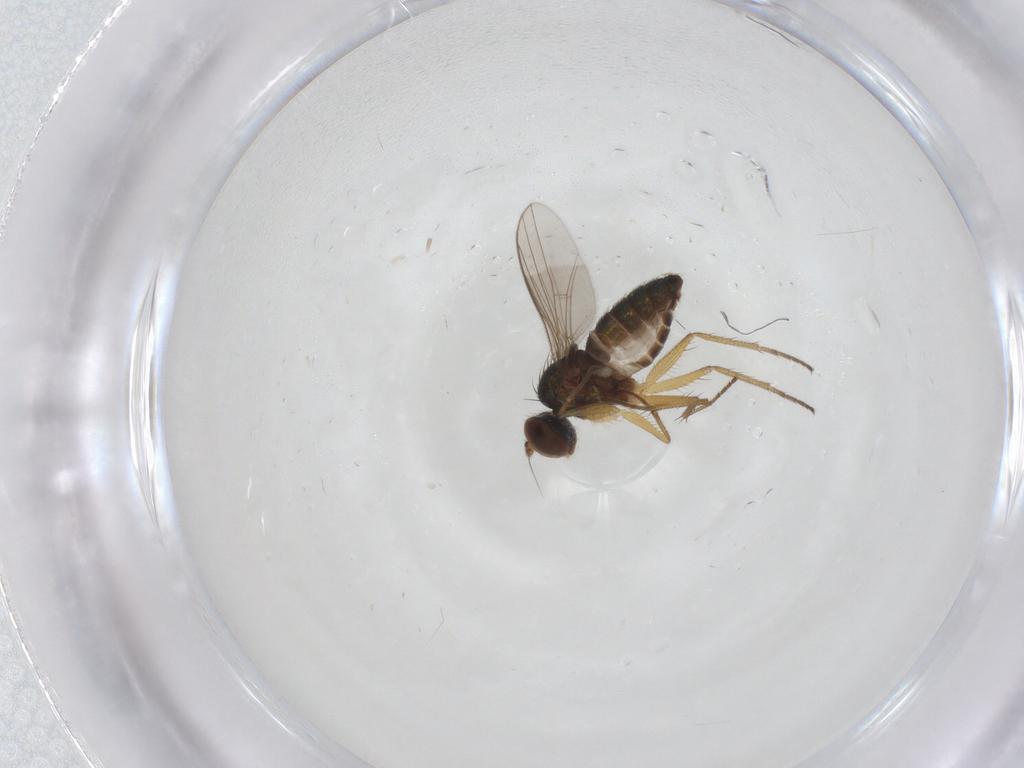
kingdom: Animalia
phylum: Arthropoda
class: Insecta
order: Diptera
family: Dolichopodidae
